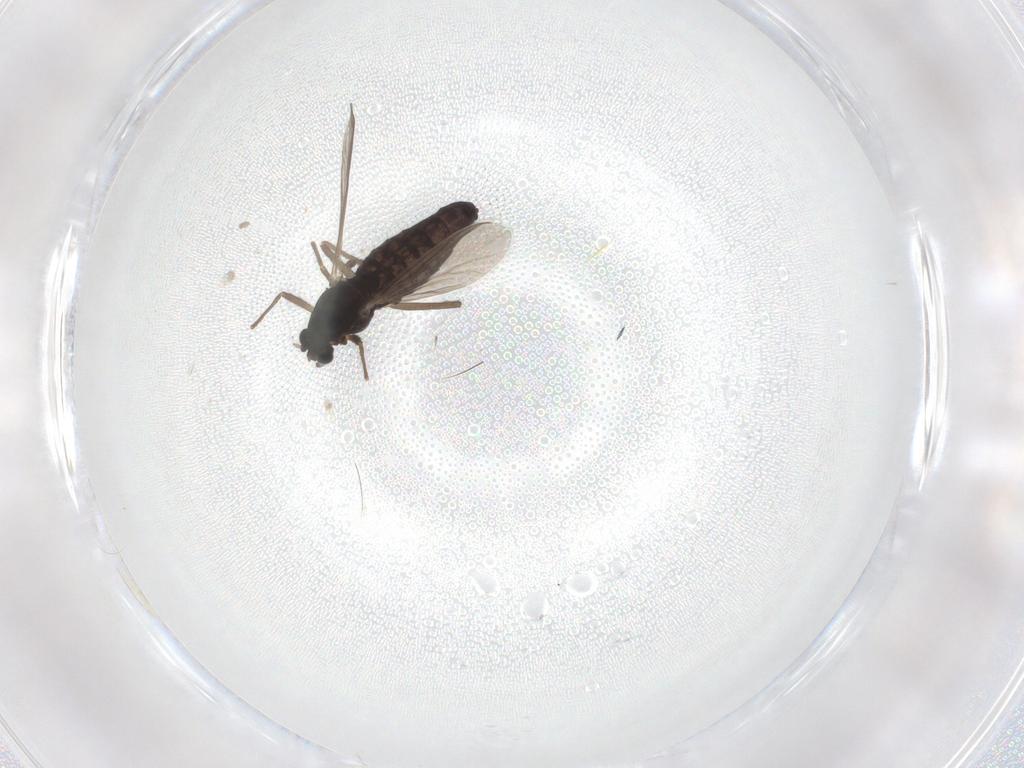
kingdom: Animalia
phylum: Arthropoda
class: Insecta
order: Diptera
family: Chironomidae
